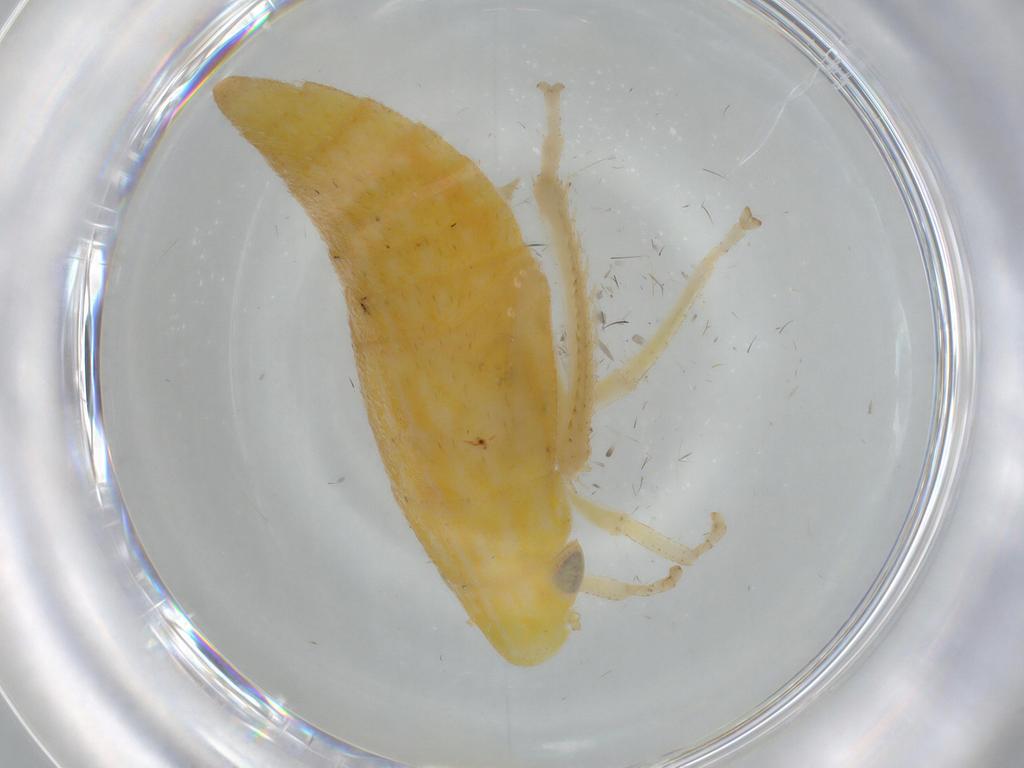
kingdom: Animalia
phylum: Arthropoda
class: Insecta
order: Hemiptera
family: Cicadellidae
